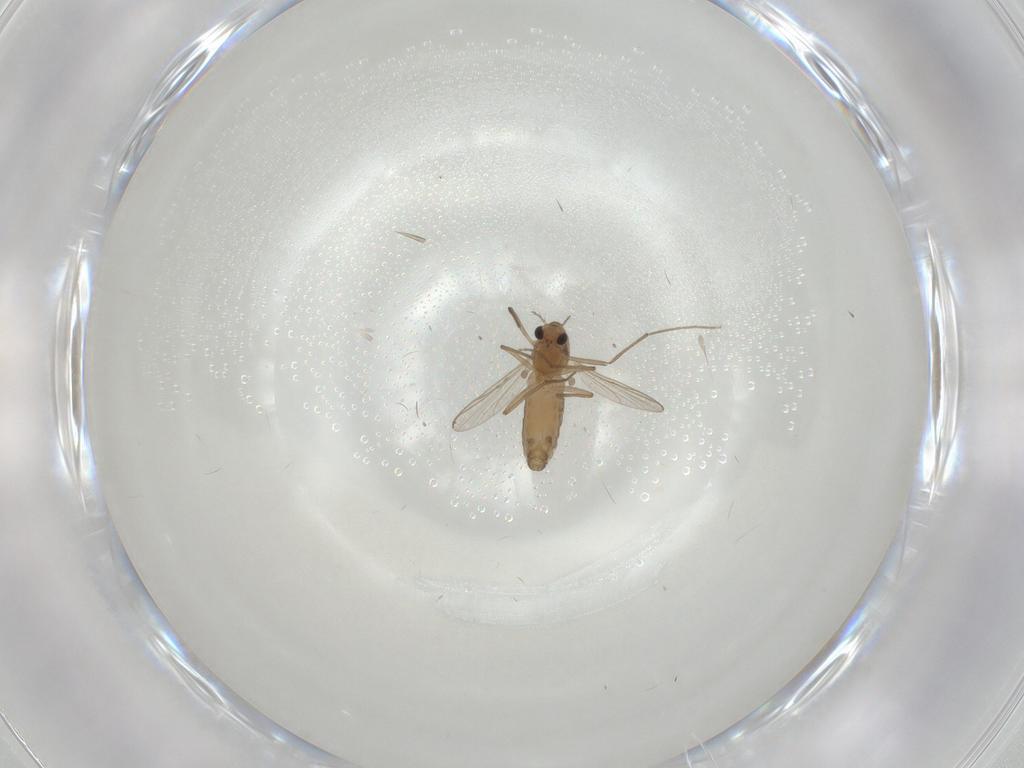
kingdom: Animalia
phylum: Arthropoda
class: Insecta
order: Diptera
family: Chironomidae
